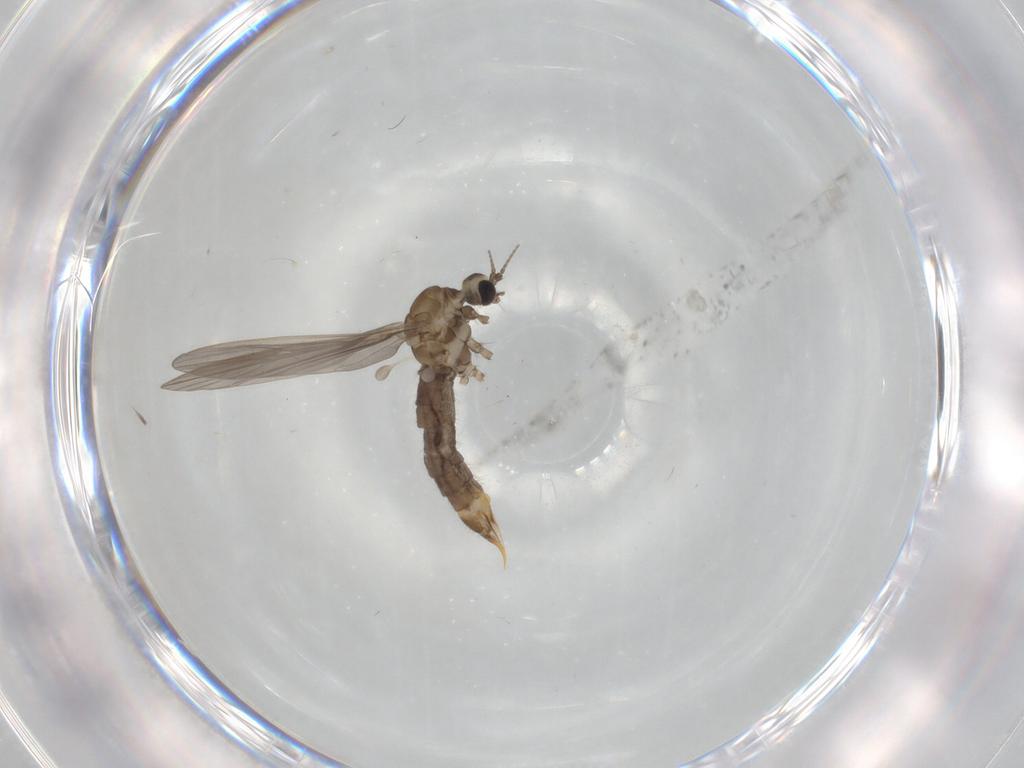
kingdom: Animalia
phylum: Arthropoda
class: Insecta
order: Diptera
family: Limoniidae
